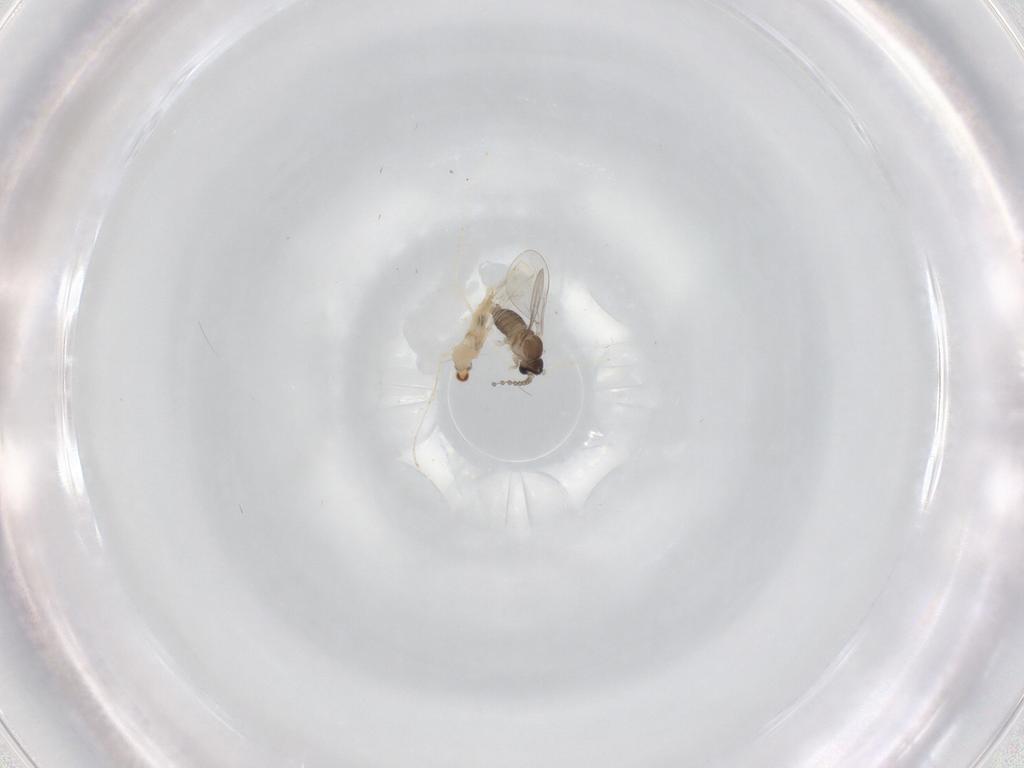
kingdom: Animalia
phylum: Arthropoda
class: Insecta
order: Diptera
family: Cecidomyiidae
